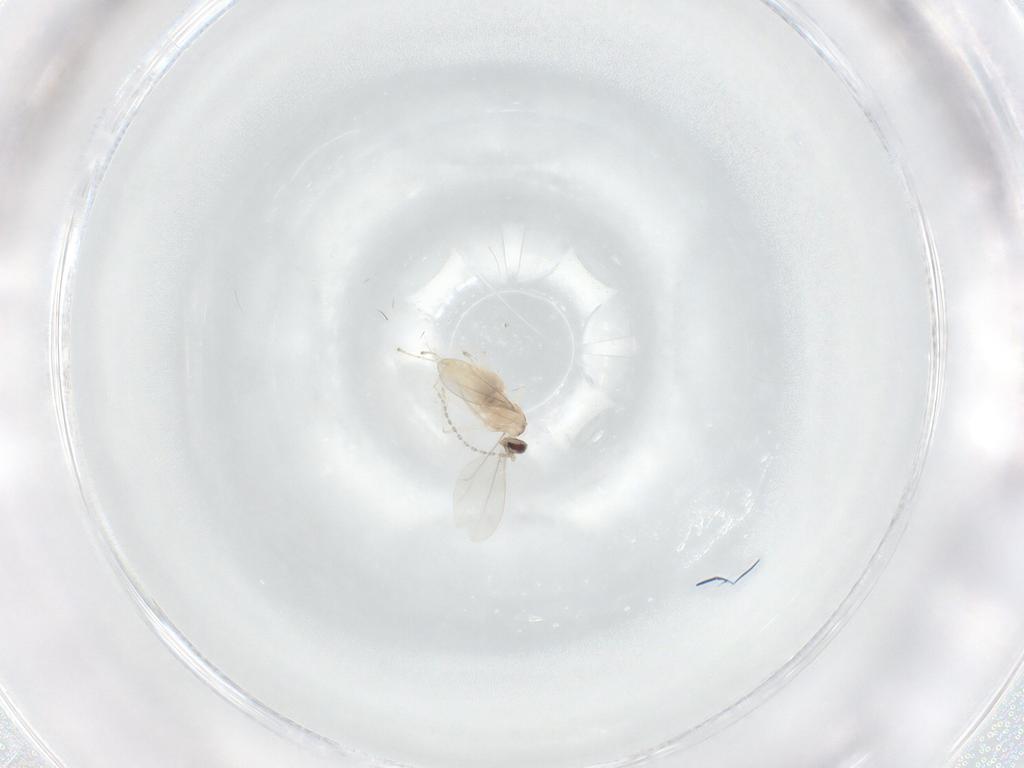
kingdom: Animalia
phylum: Arthropoda
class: Insecta
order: Diptera
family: Cecidomyiidae
